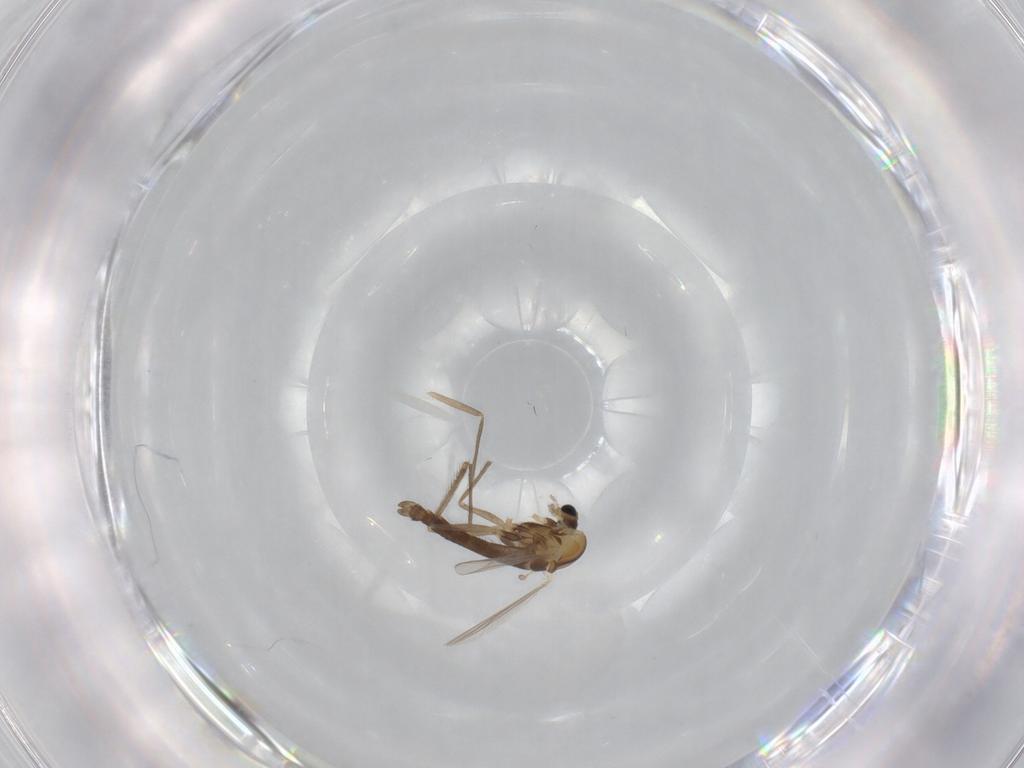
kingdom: Animalia
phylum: Arthropoda
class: Insecta
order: Diptera
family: Chironomidae
